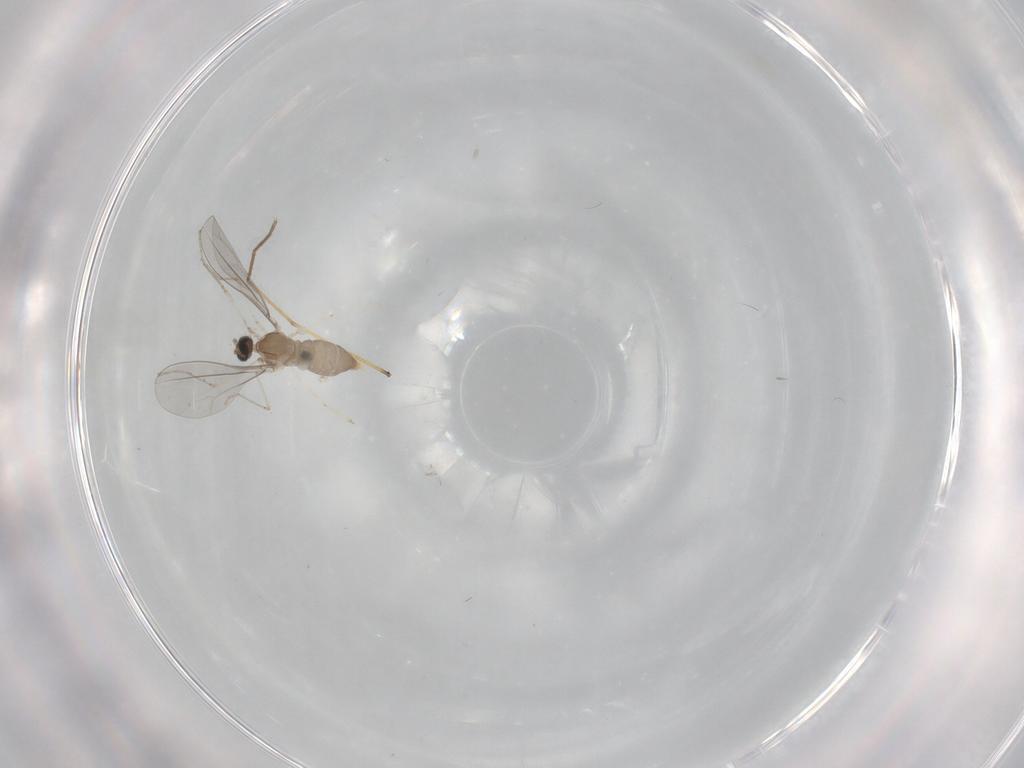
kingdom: Animalia
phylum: Arthropoda
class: Insecta
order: Diptera
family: Chironomidae
